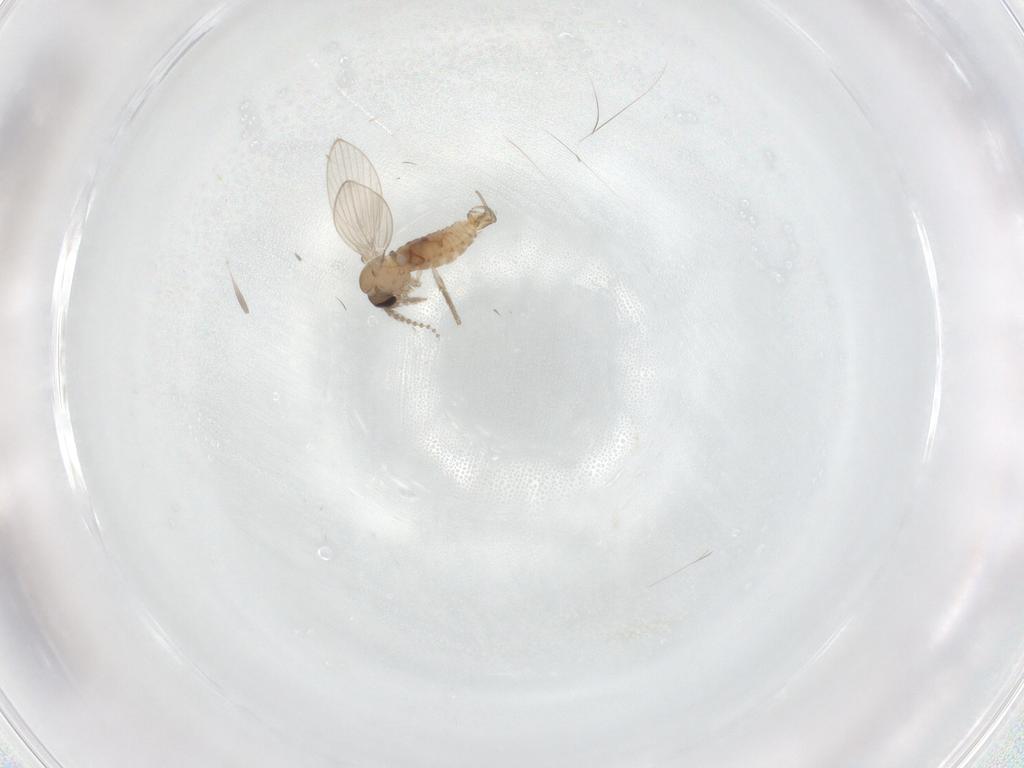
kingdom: Animalia
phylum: Arthropoda
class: Insecta
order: Diptera
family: Psychodidae
